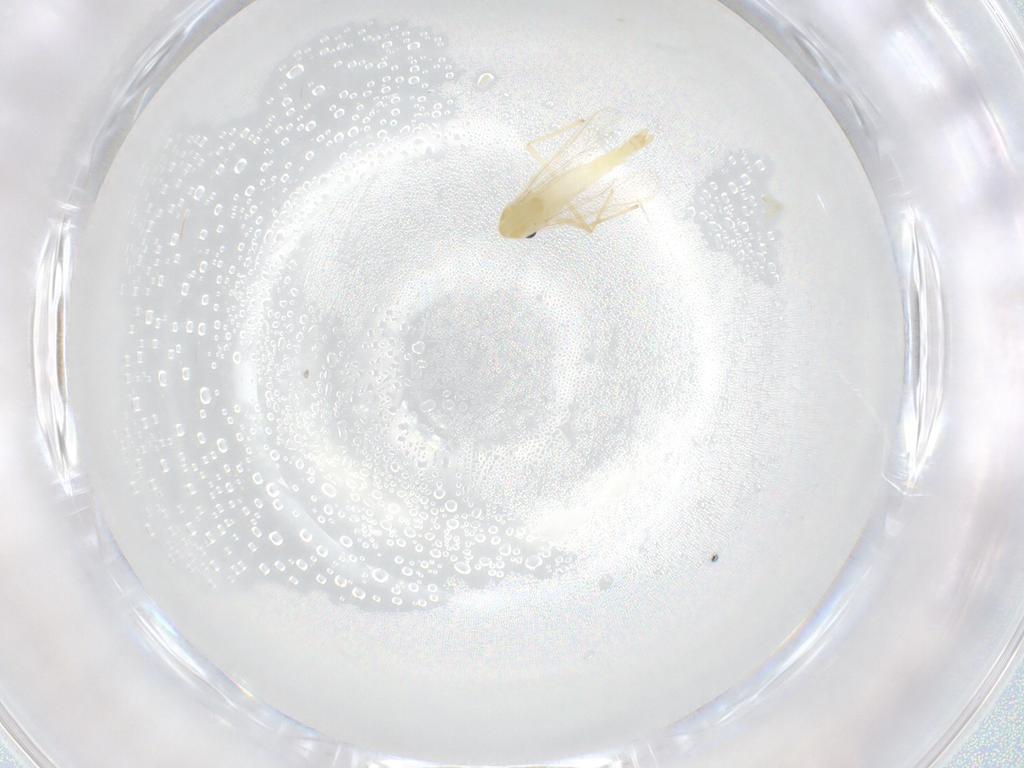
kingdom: Animalia
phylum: Arthropoda
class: Insecta
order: Diptera
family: Chironomidae
